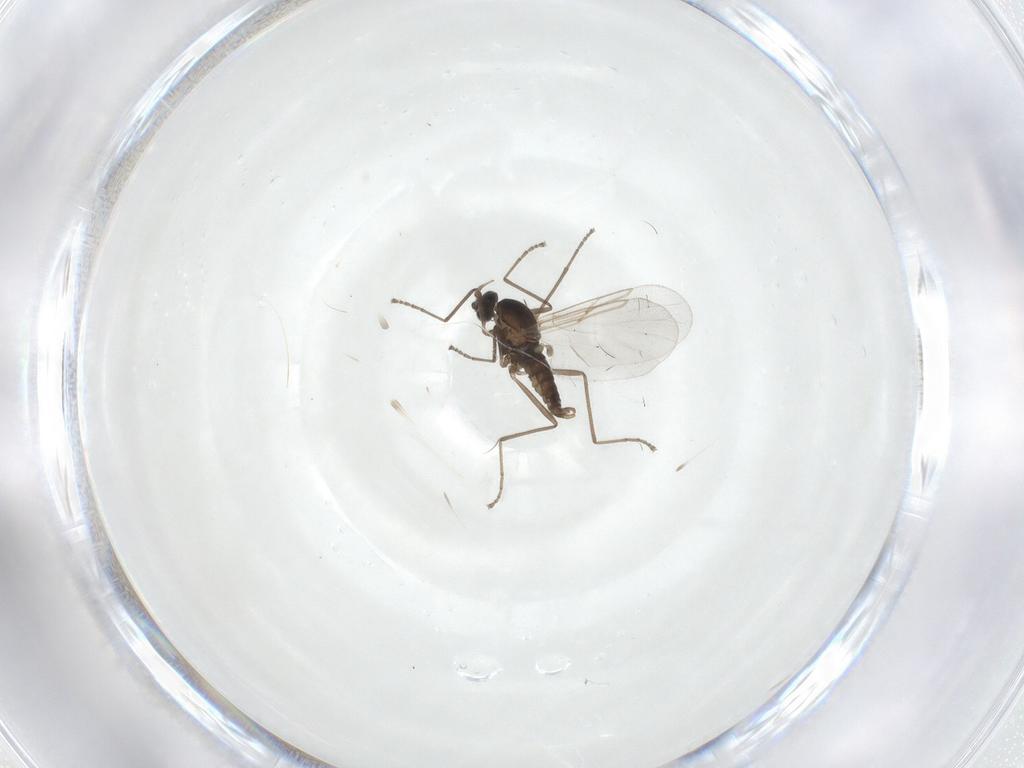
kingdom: Animalia
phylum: Arthropoda
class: Insecta
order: Diptera
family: Cecidomyiidae
